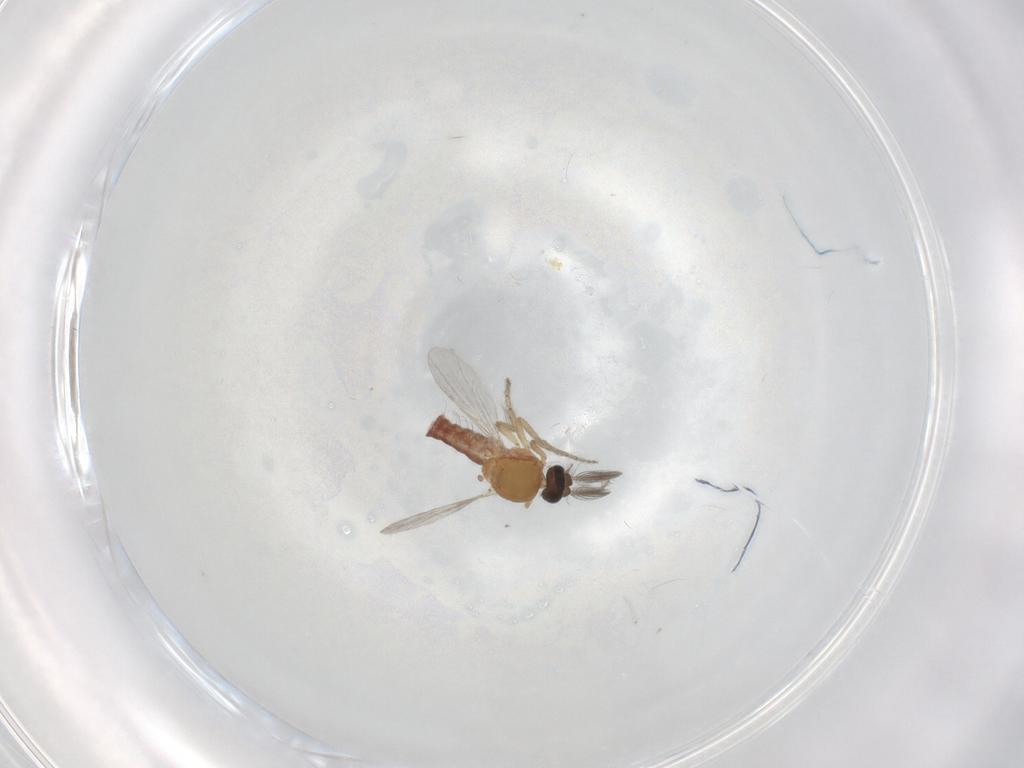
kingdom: Animalia
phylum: Arthropoda
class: Insecta
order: Diptera
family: Ceratopogonidae
